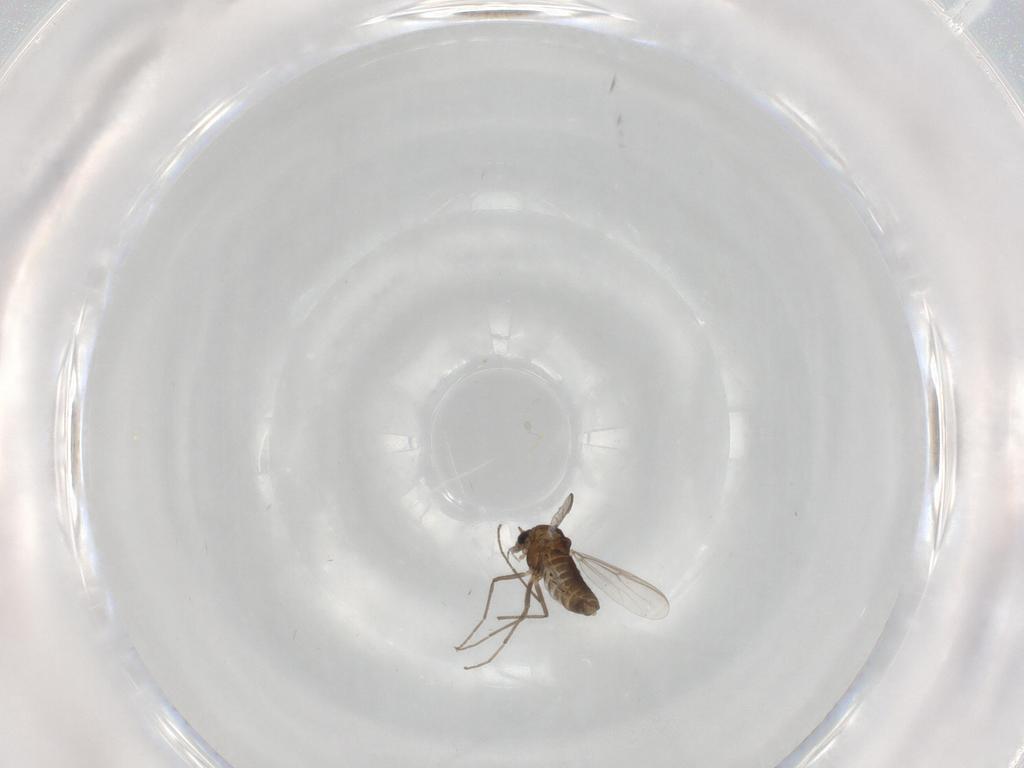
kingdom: Animalia
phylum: Arthropoda
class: Insecta
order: Diptera
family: Chironomidae
